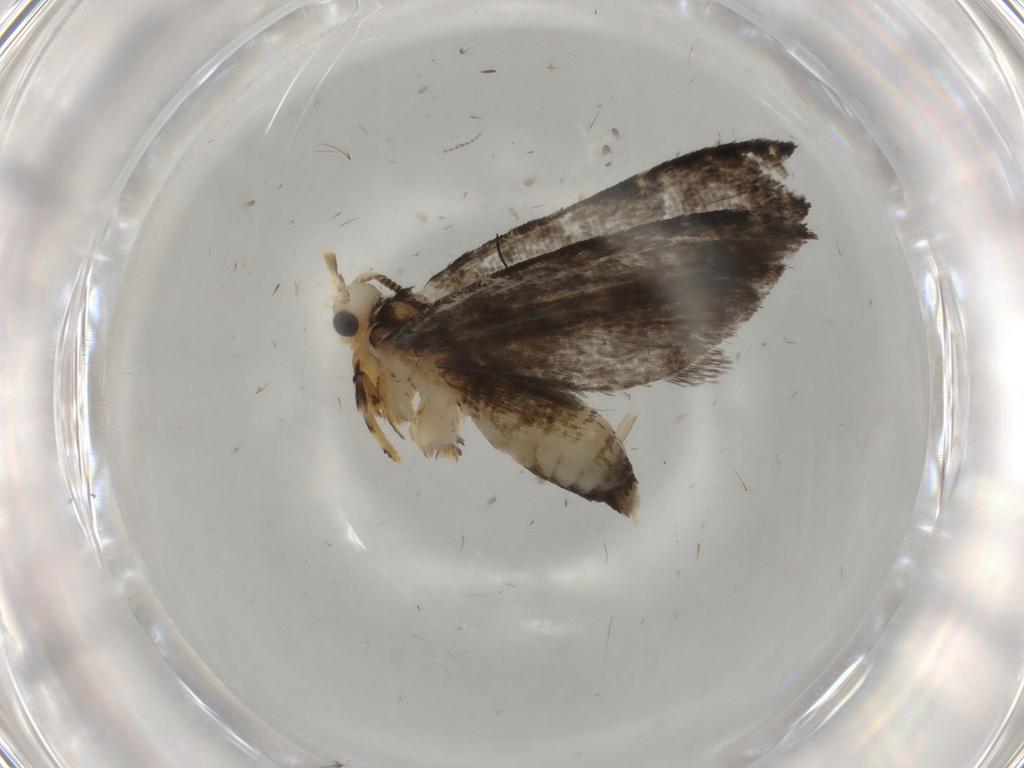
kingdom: Animalia
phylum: Arthropoda
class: Insecta
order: Lepidoptera
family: Tineidae
